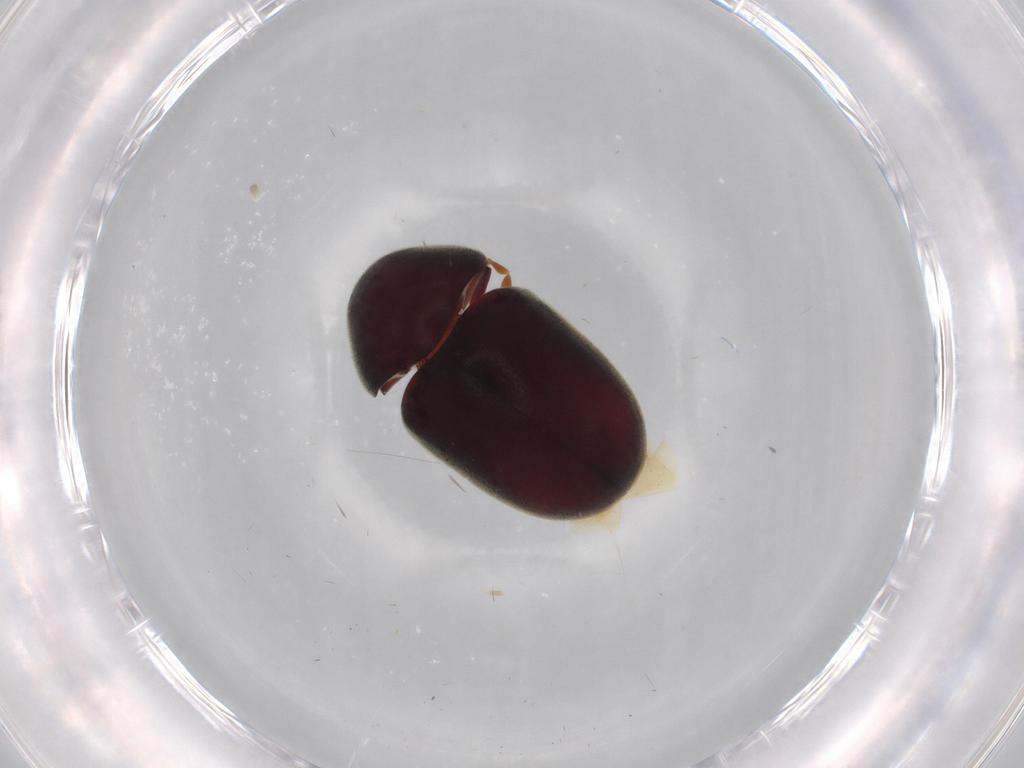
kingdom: Animalia
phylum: Arthropoda
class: Insecta
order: Coleoptera
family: Ptinidae
